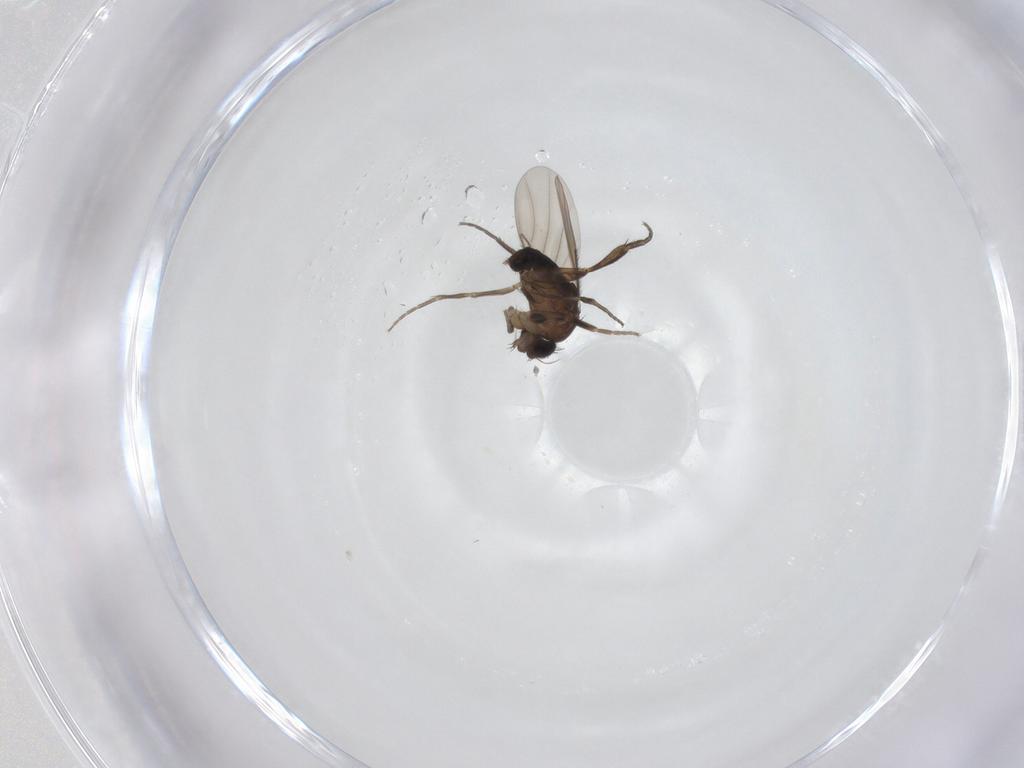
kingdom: Animalia
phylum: Arthropoda
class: Insecta
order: Diptera
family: Phoridae
